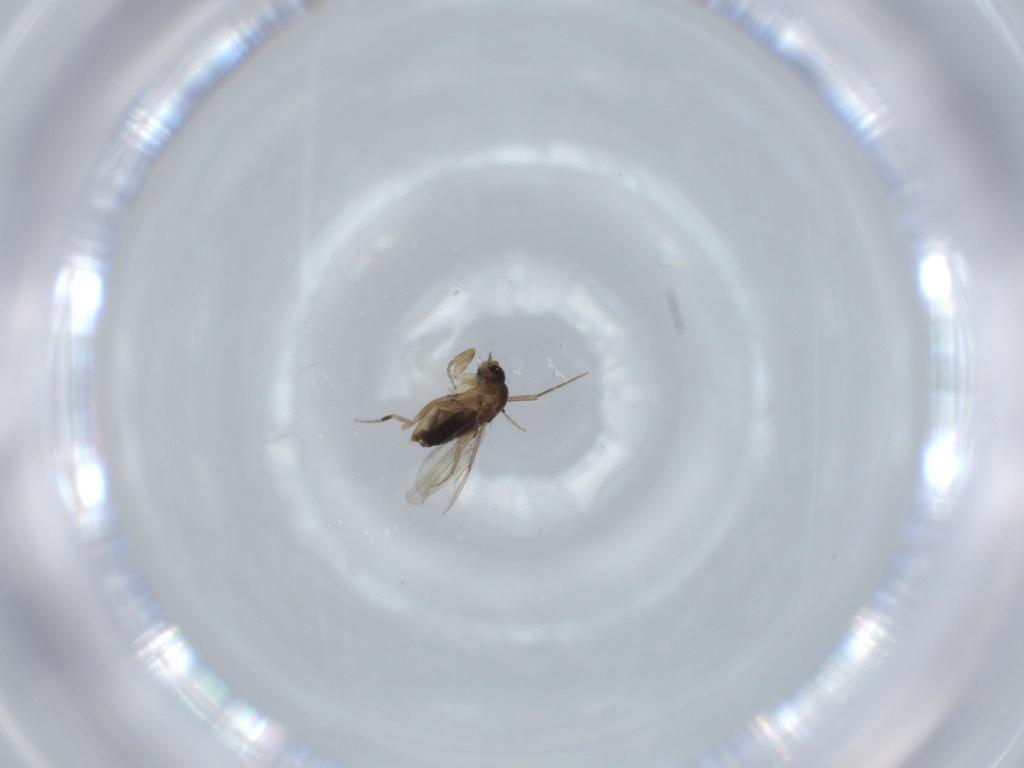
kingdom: Animalia
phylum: Arthropoda
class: Insecta
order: Diptera
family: Phoridae
